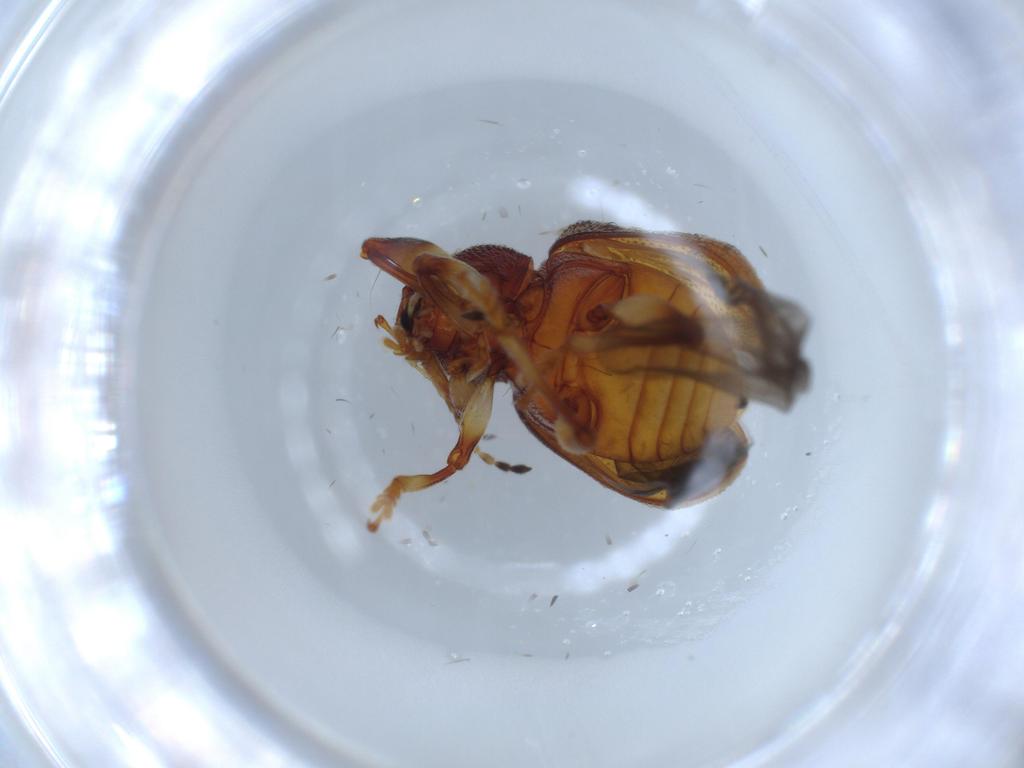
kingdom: Animalia
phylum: Arthropoda
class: Insecta
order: Coleoptera
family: Chrysomelidae
